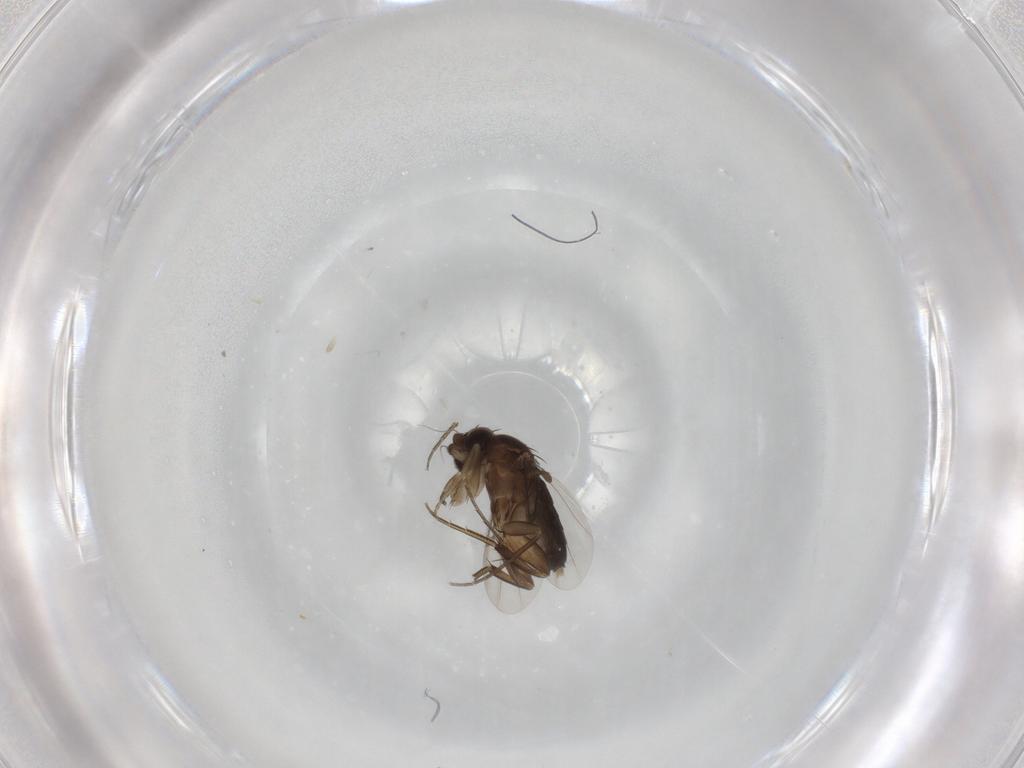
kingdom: Animalia
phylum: Arthropoda
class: Insecta
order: Diptera
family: Phoridae
